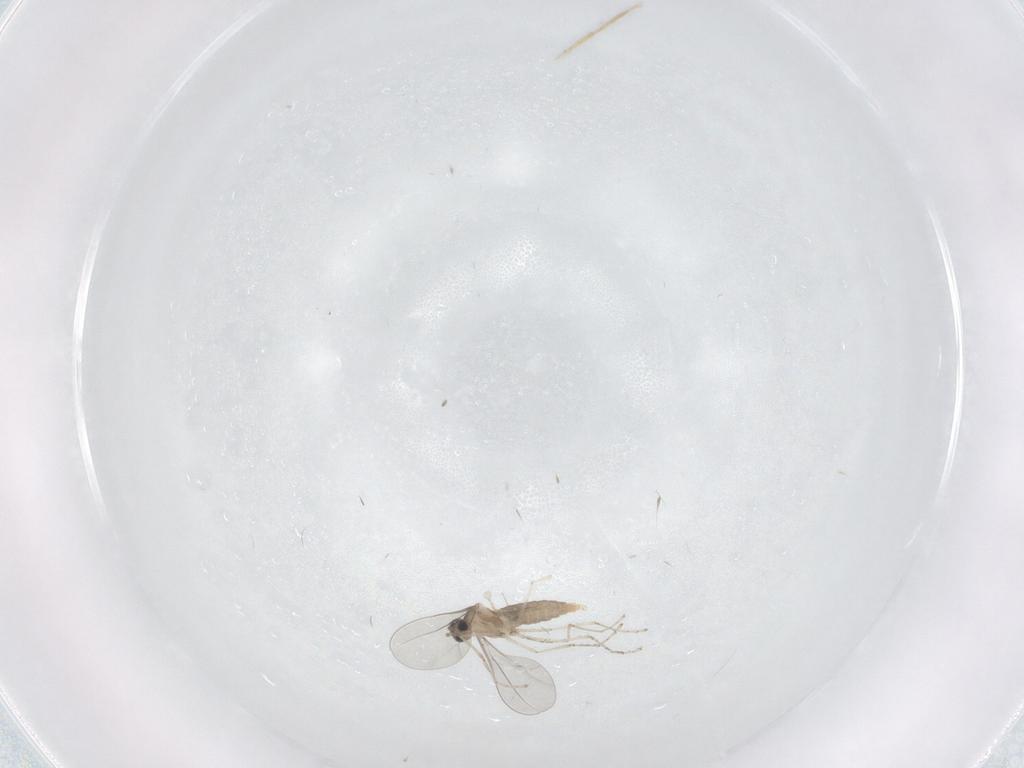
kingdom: Animalia
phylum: Arthropoda
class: Insecta
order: Diptera
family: Cecidomyiidae
